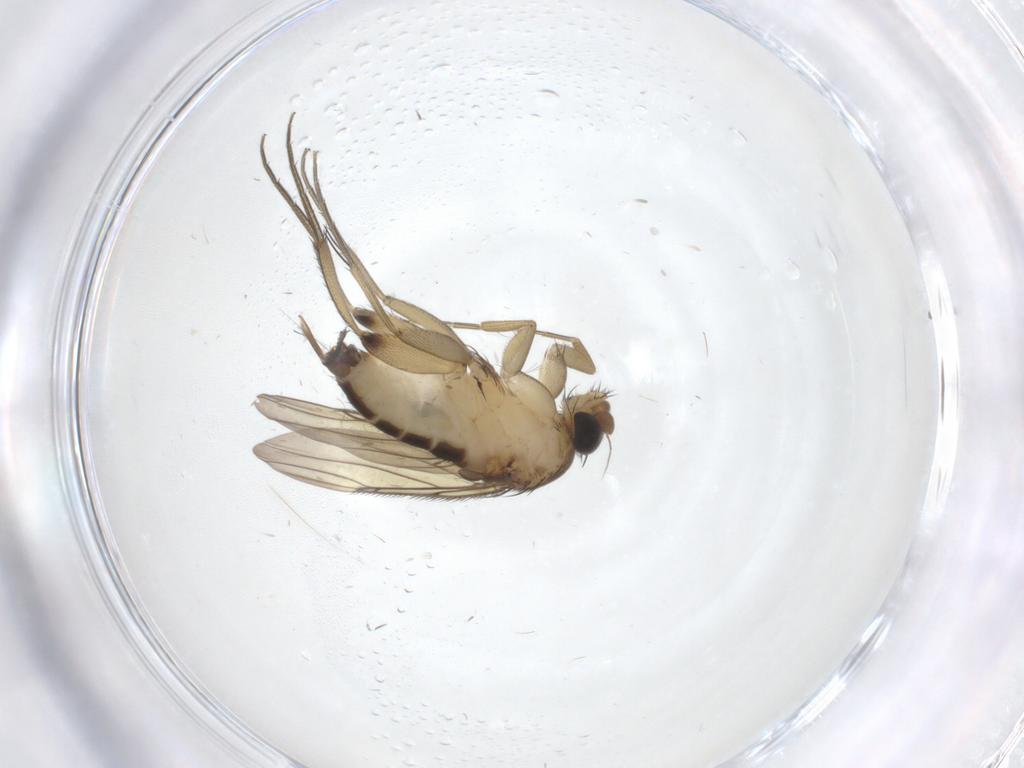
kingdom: Animalia
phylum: Arthropoda
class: Insecta
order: Diptera
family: Phoridae
